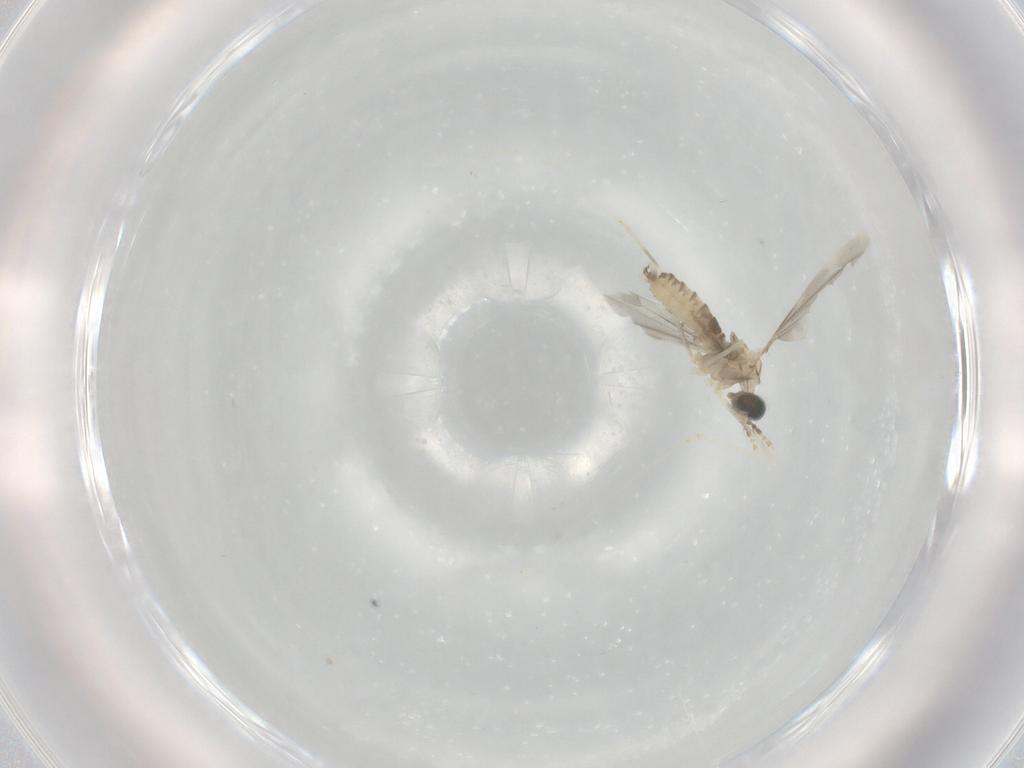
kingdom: Animalia
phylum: Arthropoda
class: Insecta
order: Diptera
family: Cecidomyiidae
